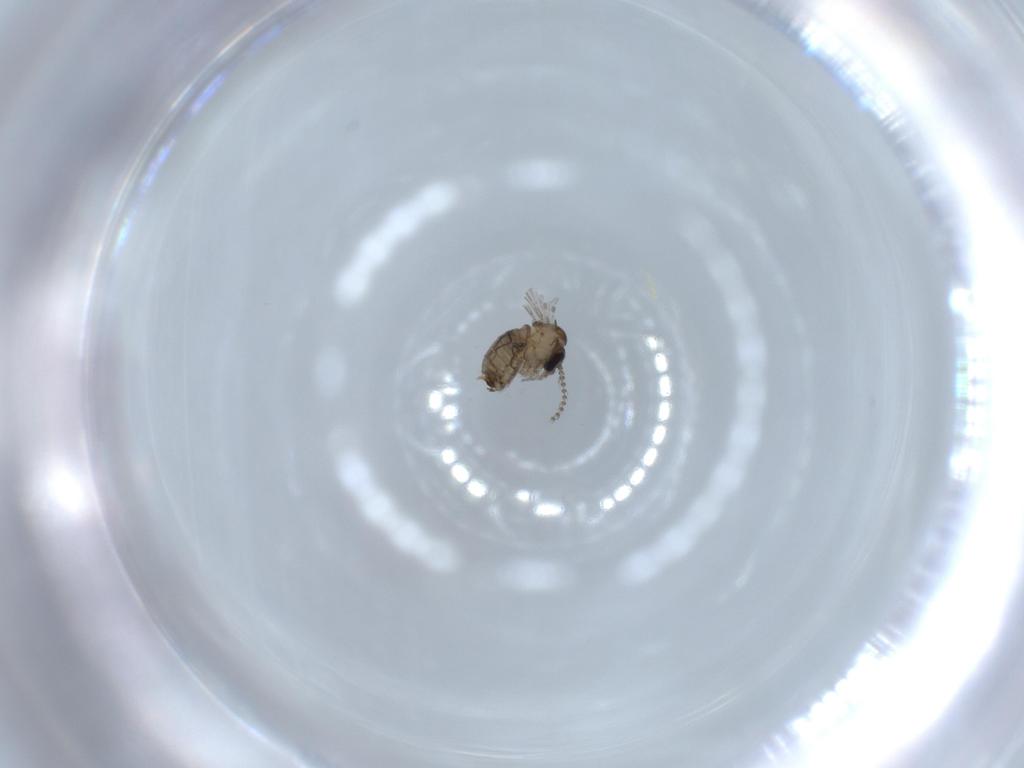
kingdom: Animalia
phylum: Arthropoda
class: Insecta
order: Diptera
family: Psychodidae
